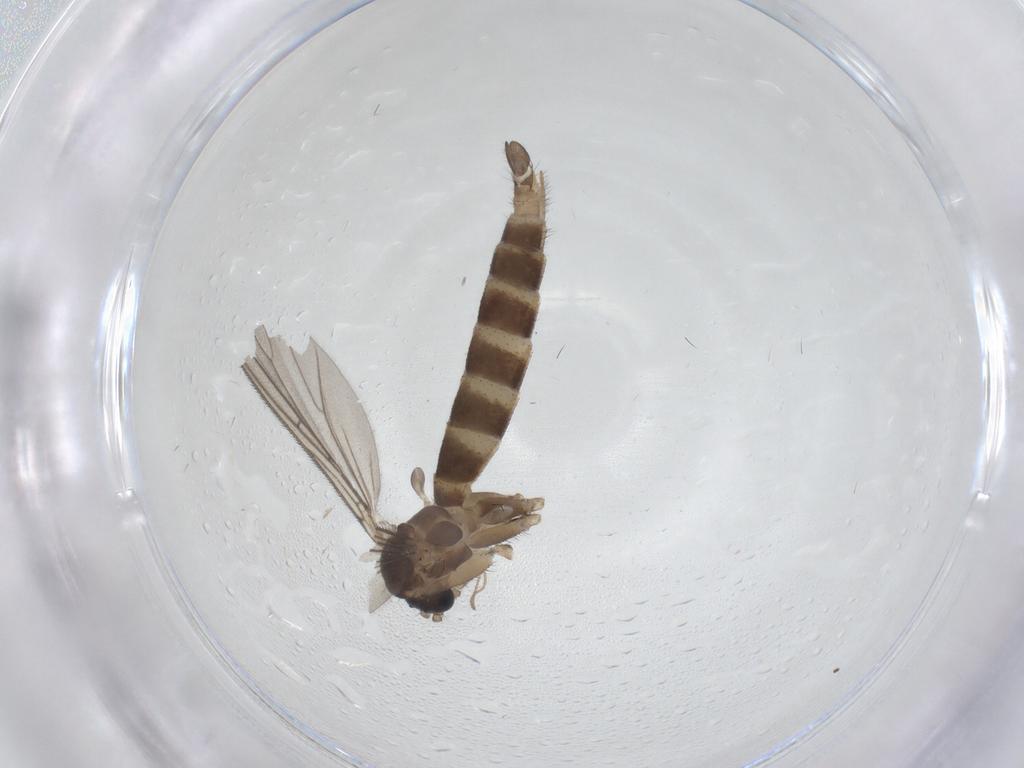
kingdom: Animalia
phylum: Arthropoda
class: Insecta
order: Diptera
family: Mycetophilidae
